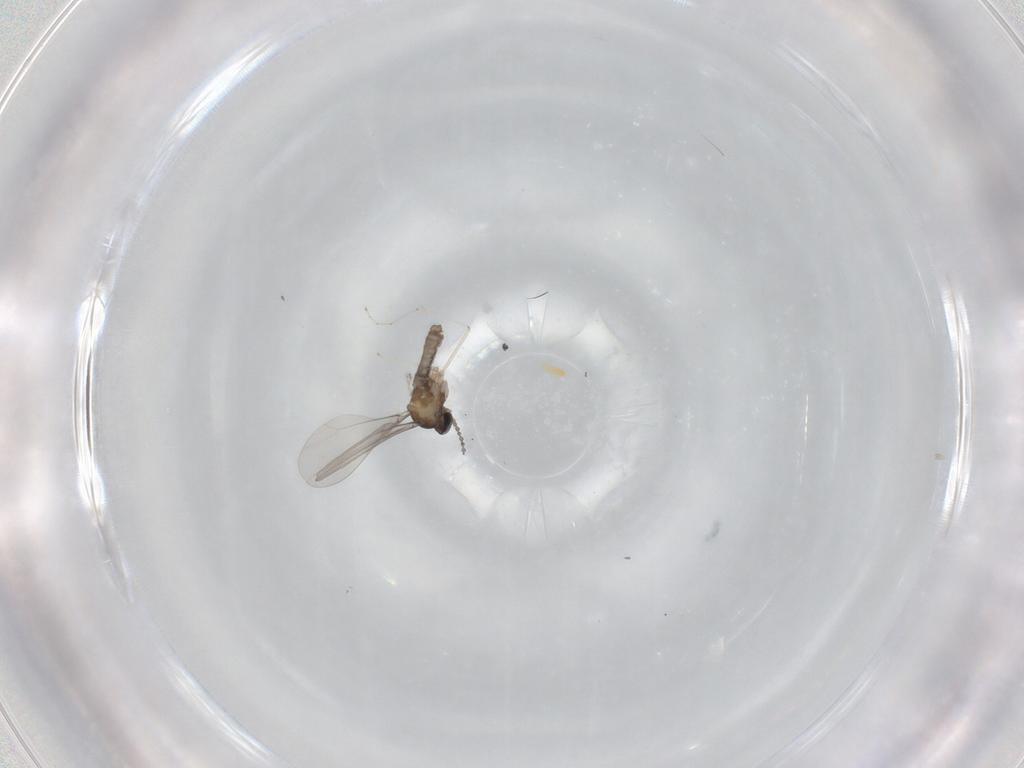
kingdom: Animalia
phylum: Arthropoda
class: Insecta
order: Diptera
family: Cecidomyiidae
